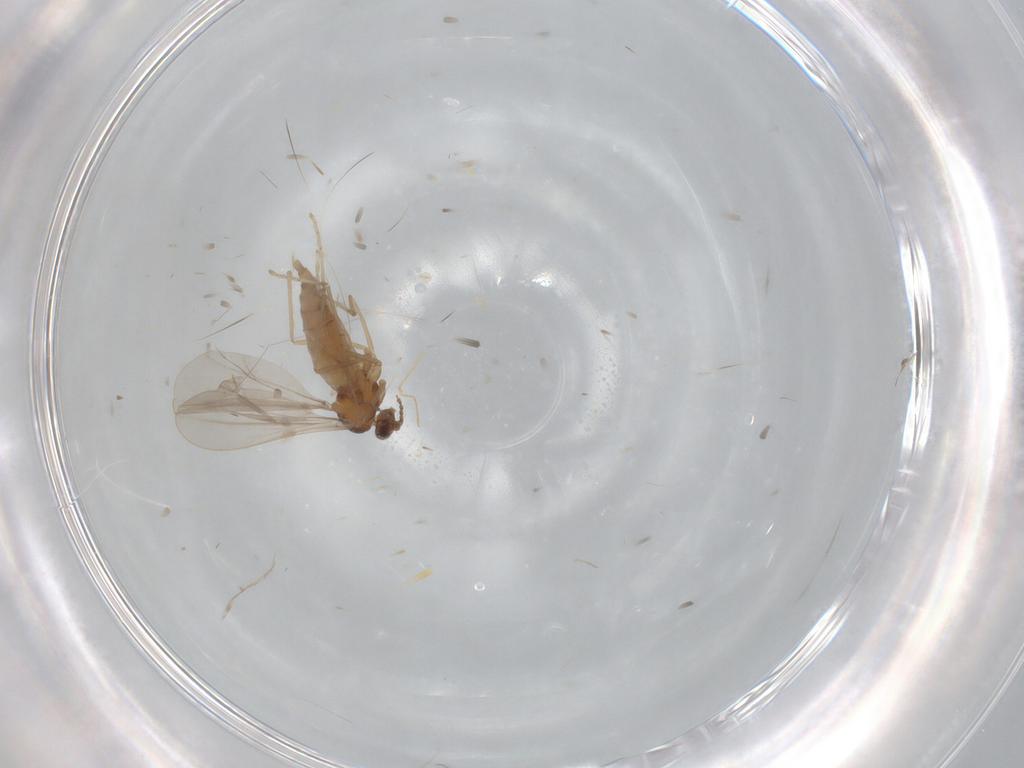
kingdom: Animalia
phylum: Arthropoda
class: Insecta
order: Diptera
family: Cecidomyiidae
